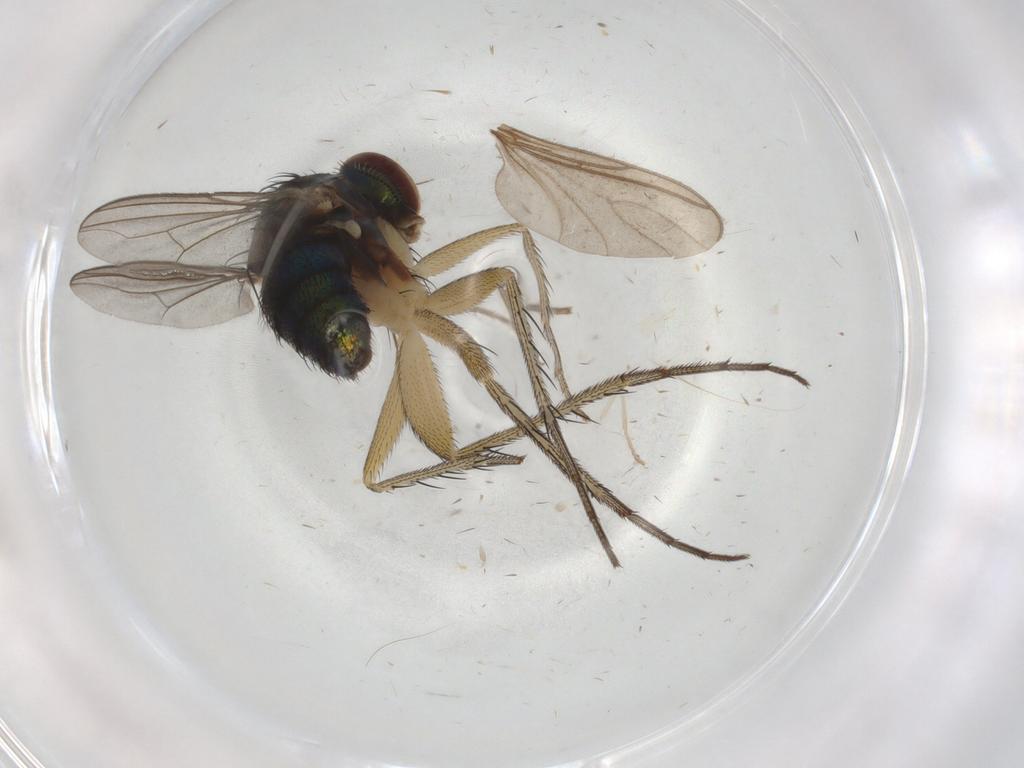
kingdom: Animalia
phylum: Arthropoda
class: Insecta
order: Diptera
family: Dolichopodidae
